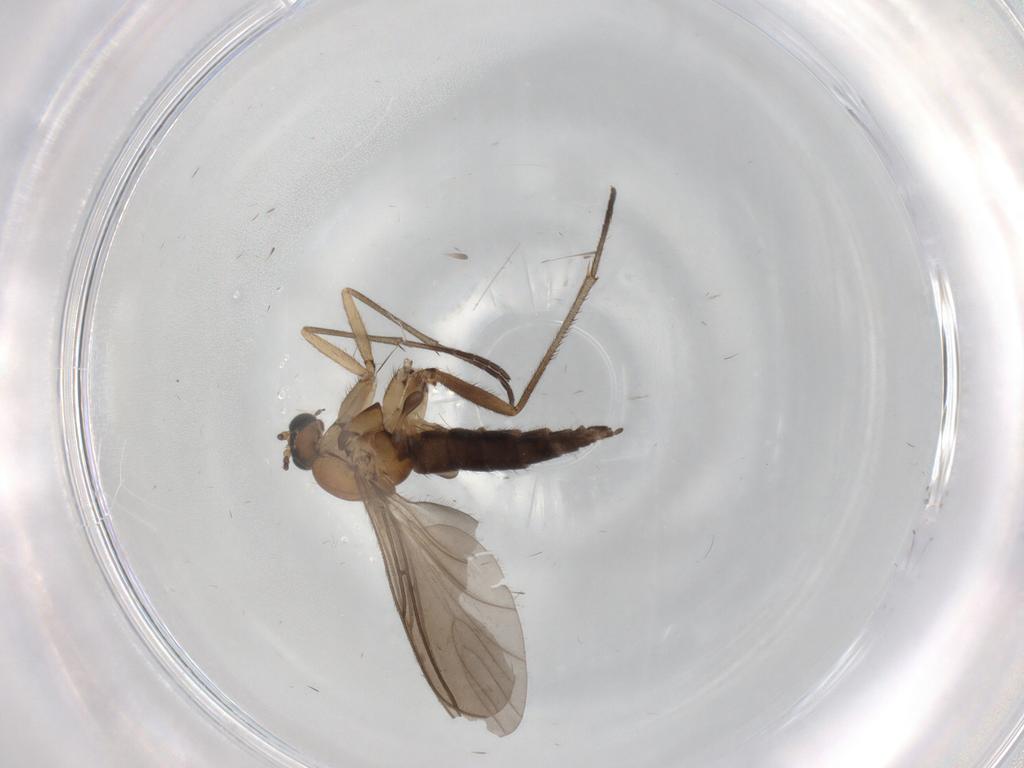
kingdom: Animalia
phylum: Arthropoda
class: Insecta
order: Diptera
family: Sciaridae
